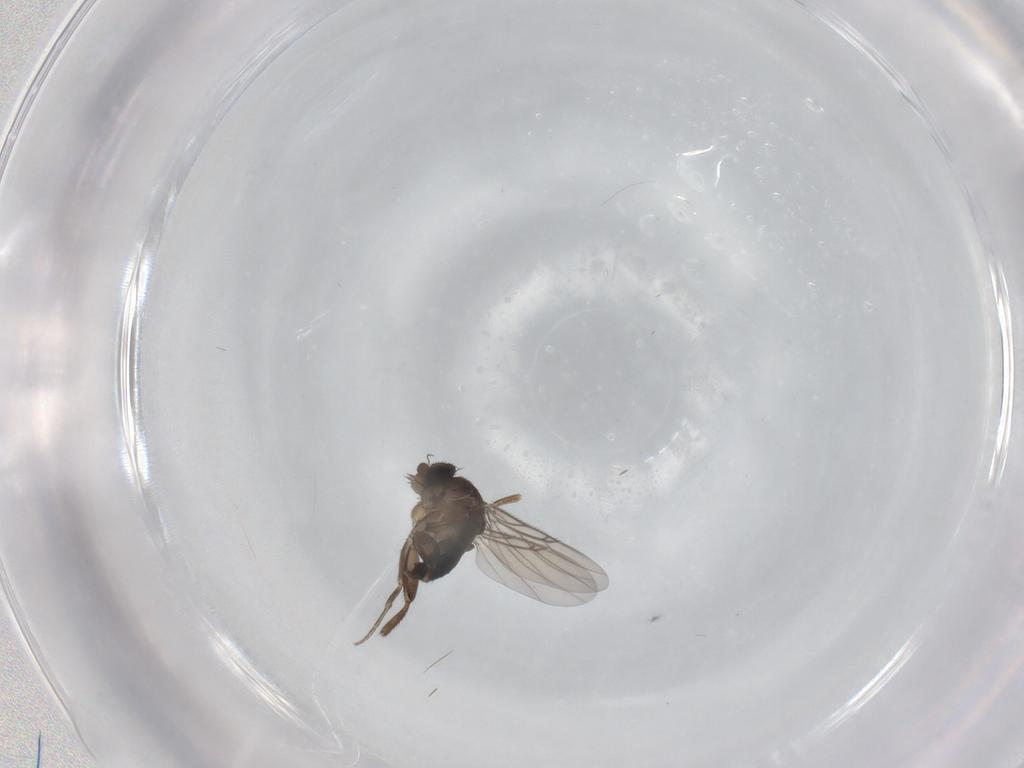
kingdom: Animalia
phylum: Arthropoda
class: Insecta
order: Diptera
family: Phoridae
